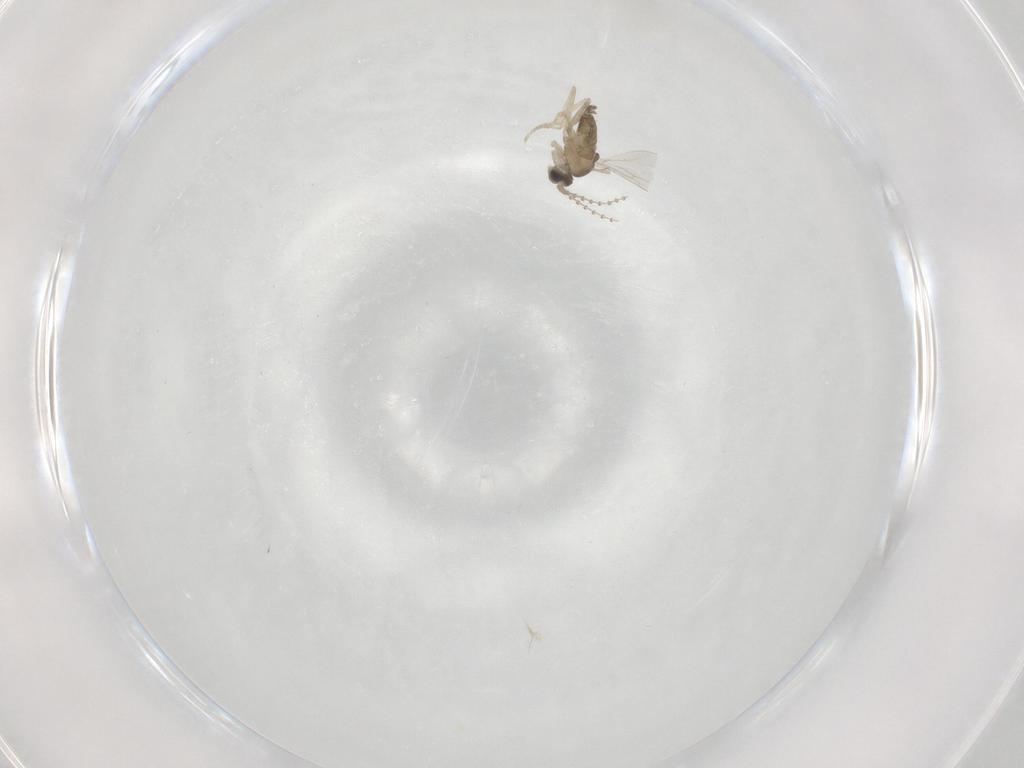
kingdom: Animalia
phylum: Arthropoda
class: Insecta
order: Diptera
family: Cecidomyiidae
